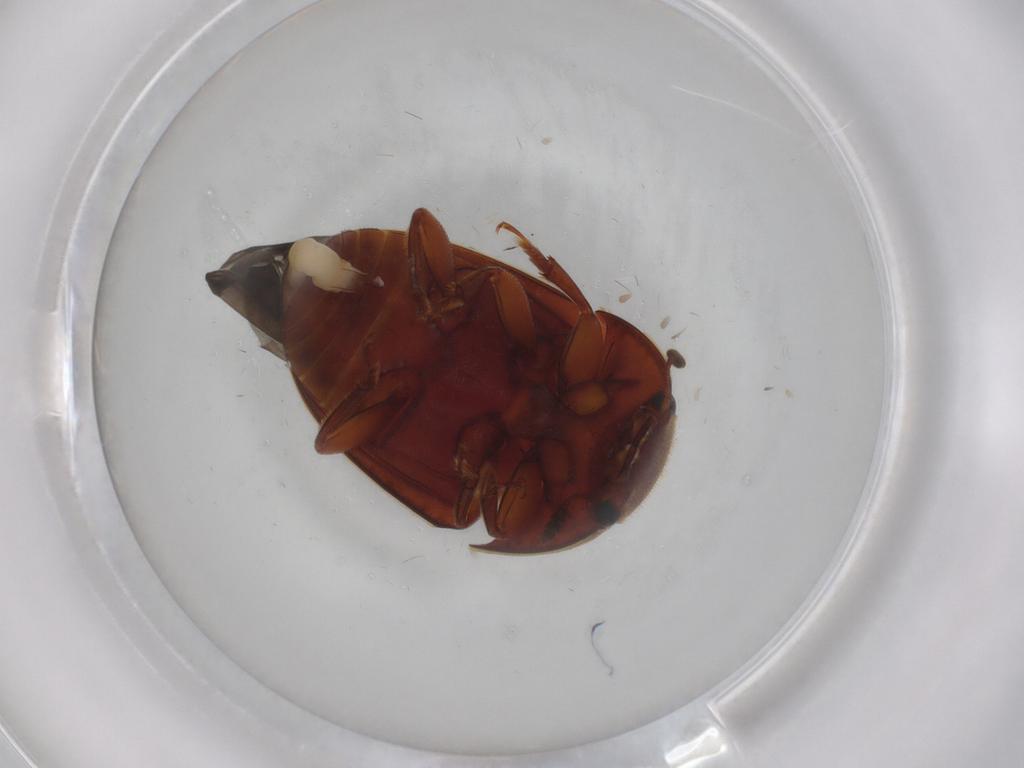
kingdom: Animalia
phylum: Arthropoda
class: Insecta
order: Coleoptera
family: Nitidulidae
